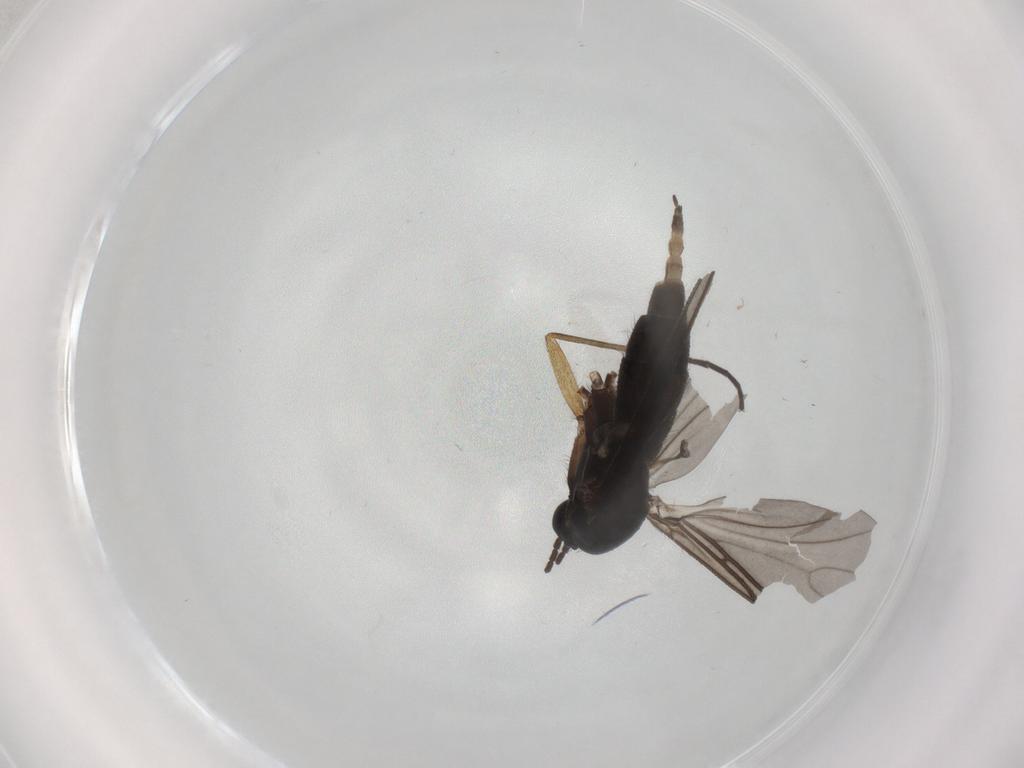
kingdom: Animalia
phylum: Arthropoda
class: Insecta
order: Diptera
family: Sciaridae
